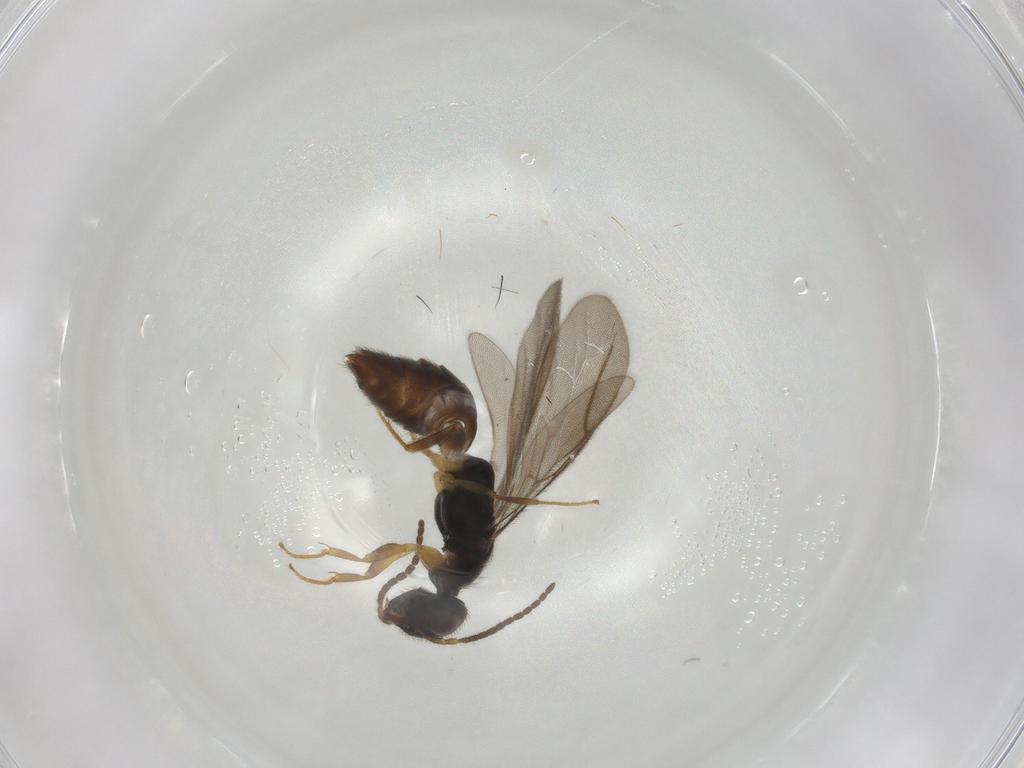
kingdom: Animalia
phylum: Arthropoda
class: Insecta
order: Hymenoptera
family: Bethylidae
